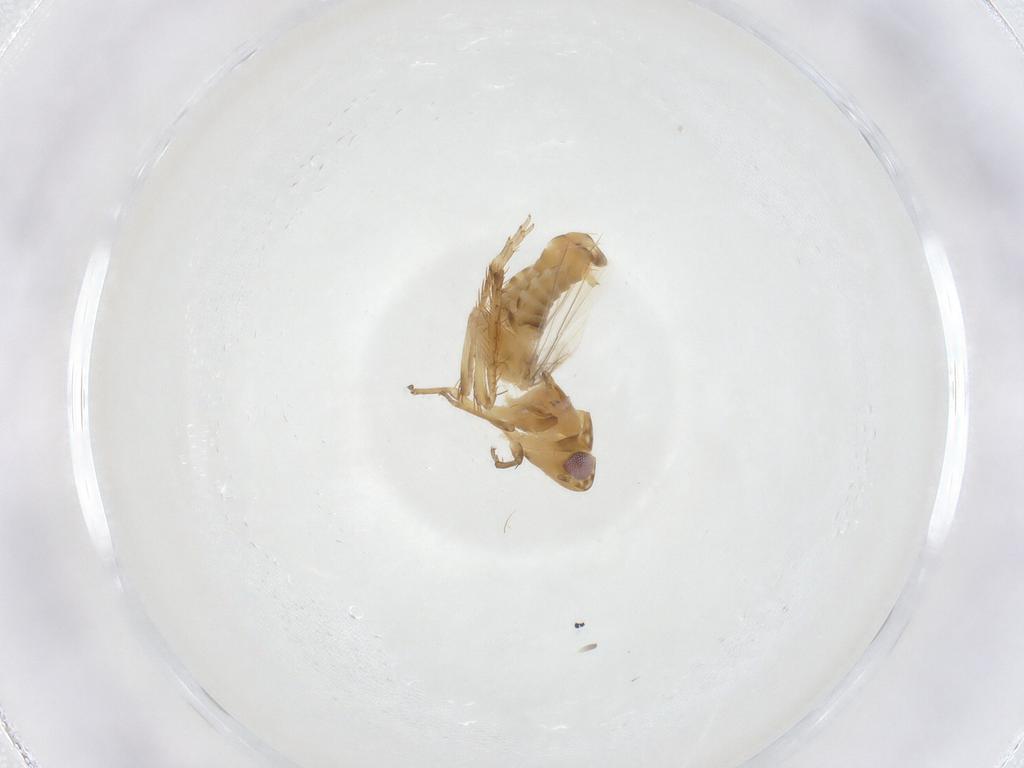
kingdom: Animalia
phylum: Arthropoda
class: Insecta
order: Hemiptera
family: Cicadellidae
